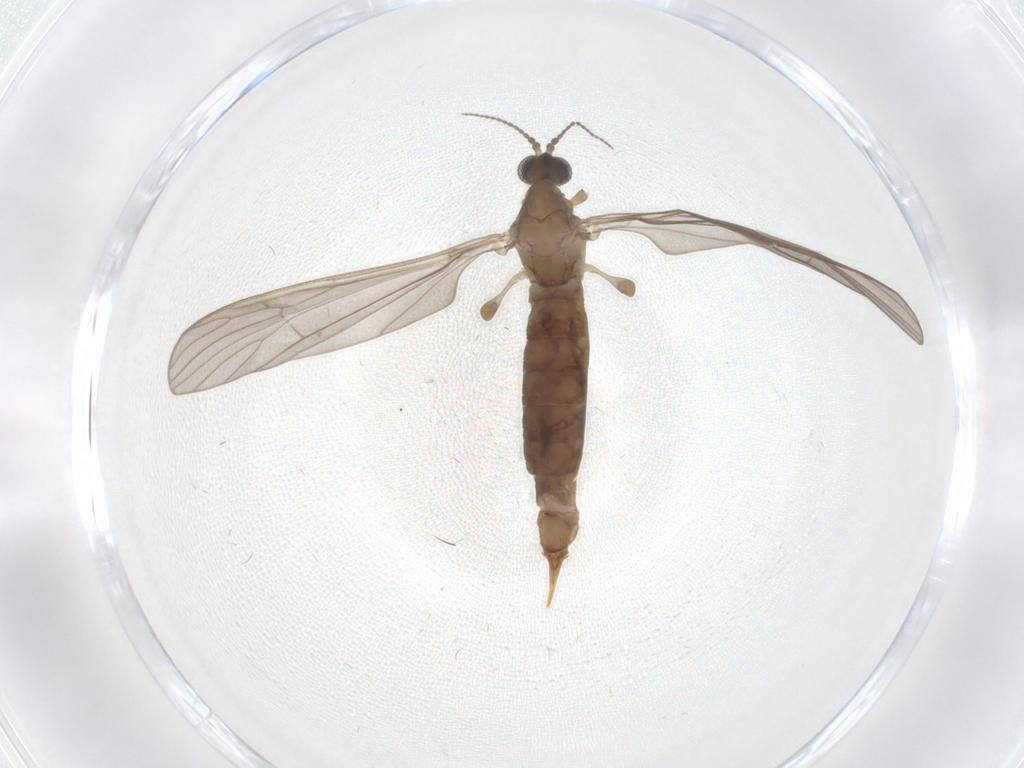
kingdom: Animalia
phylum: Arthropoda
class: Insecta
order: Diptera
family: Limoniidae
